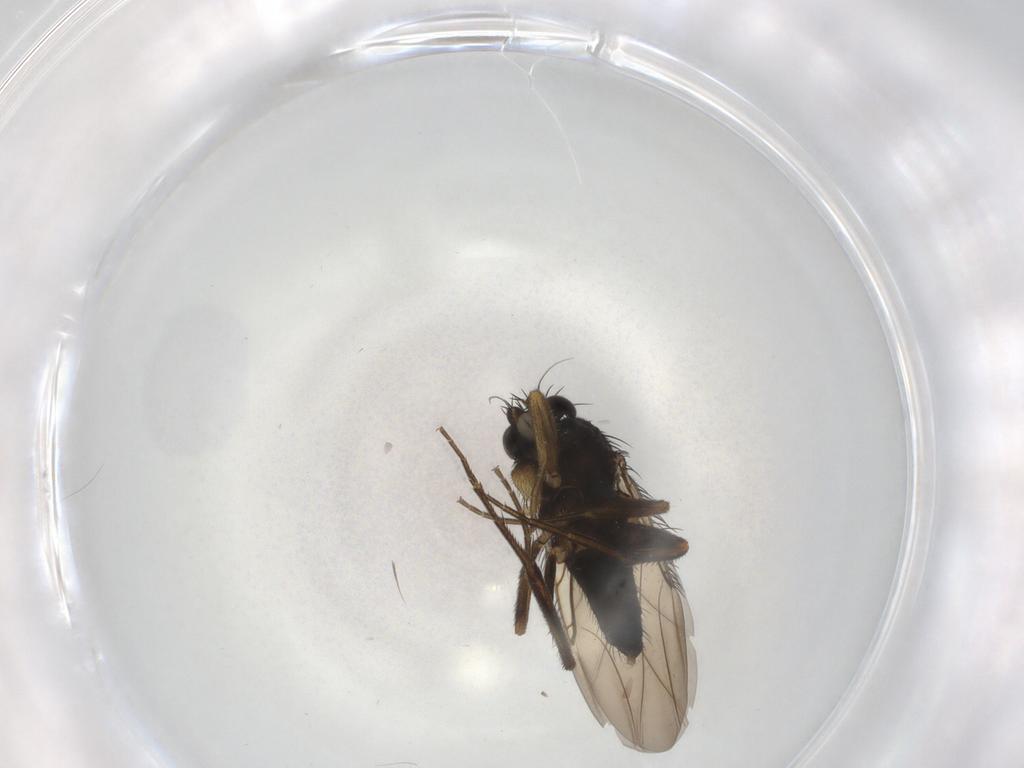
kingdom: Animalia
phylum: Arthropoda
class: Insecta
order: Diptera
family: Phoridae
